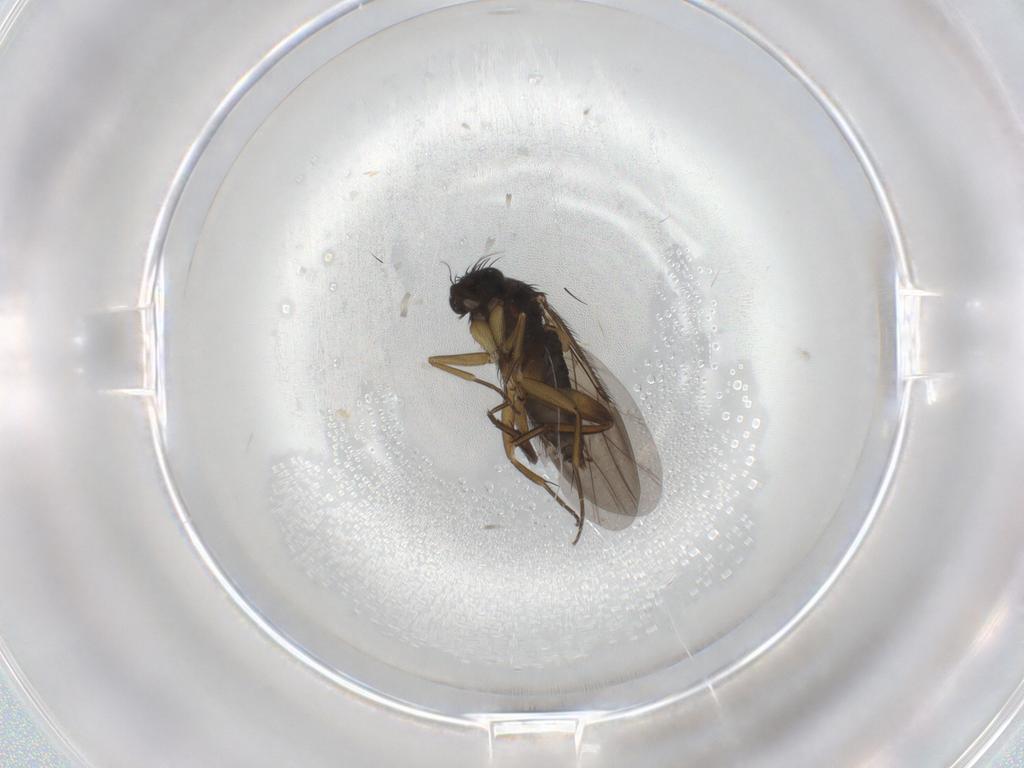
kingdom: Animalia
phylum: Arthropoda
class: Insecta
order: Diptera
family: Phoridae
